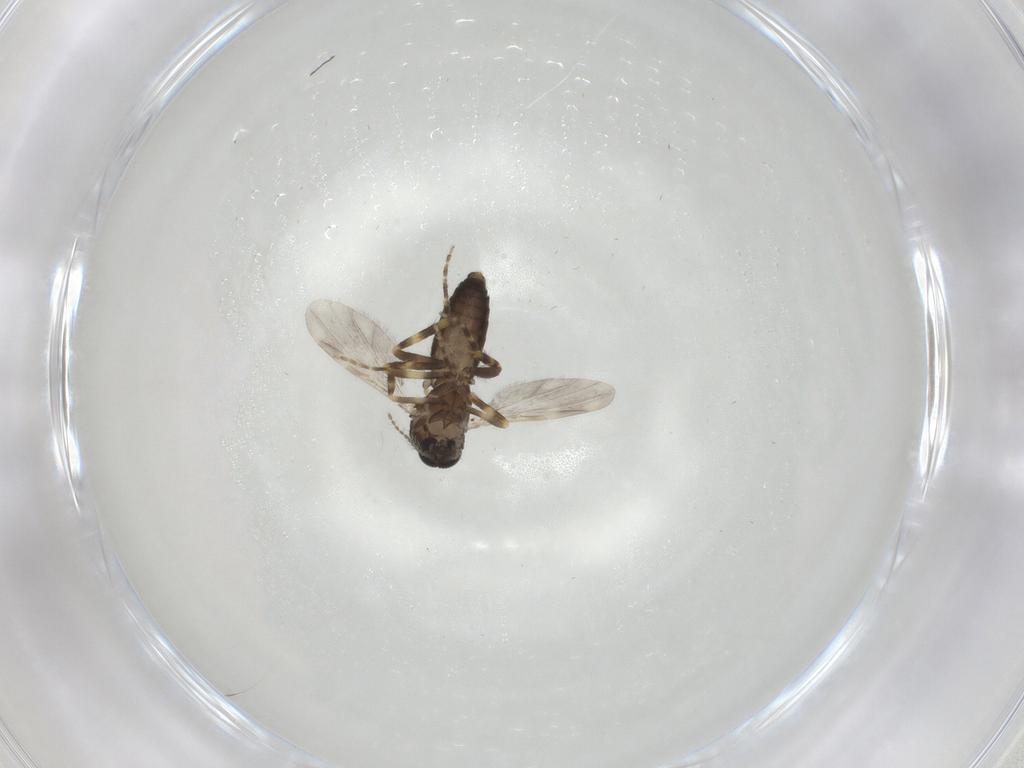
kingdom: Animalia
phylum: Arthropoda
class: Insecta
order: Diptera
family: Ceratopogonidae
